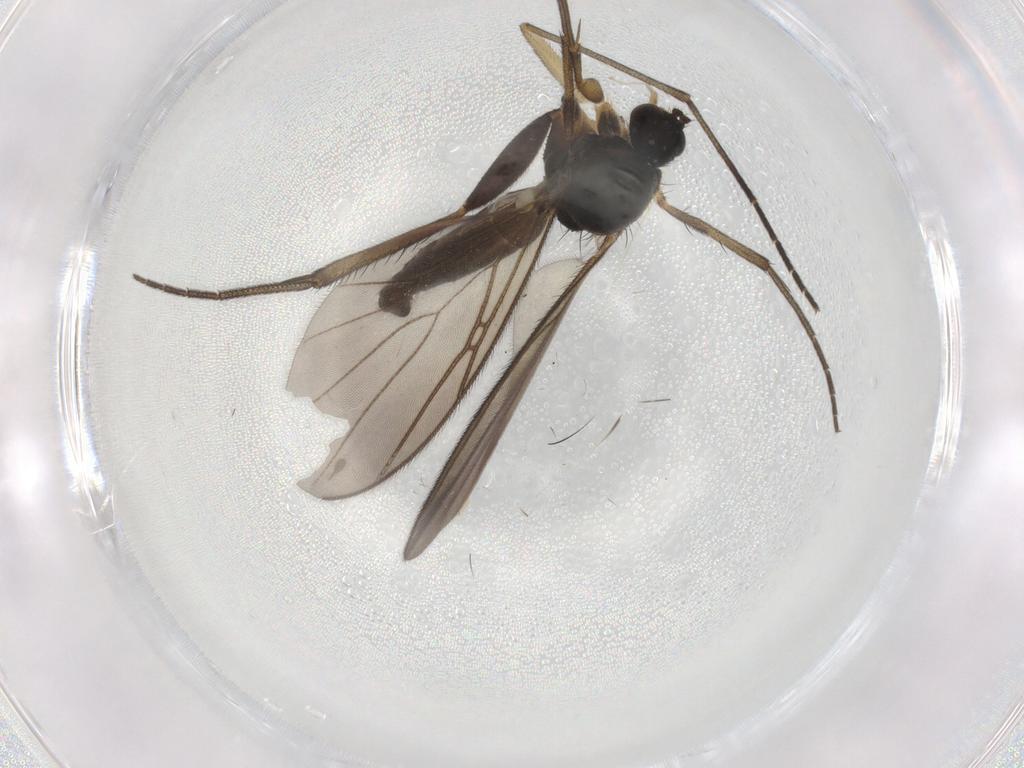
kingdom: Animalia
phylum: Arthropoda
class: Insecta
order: Diptera
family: Mycetophilidae
